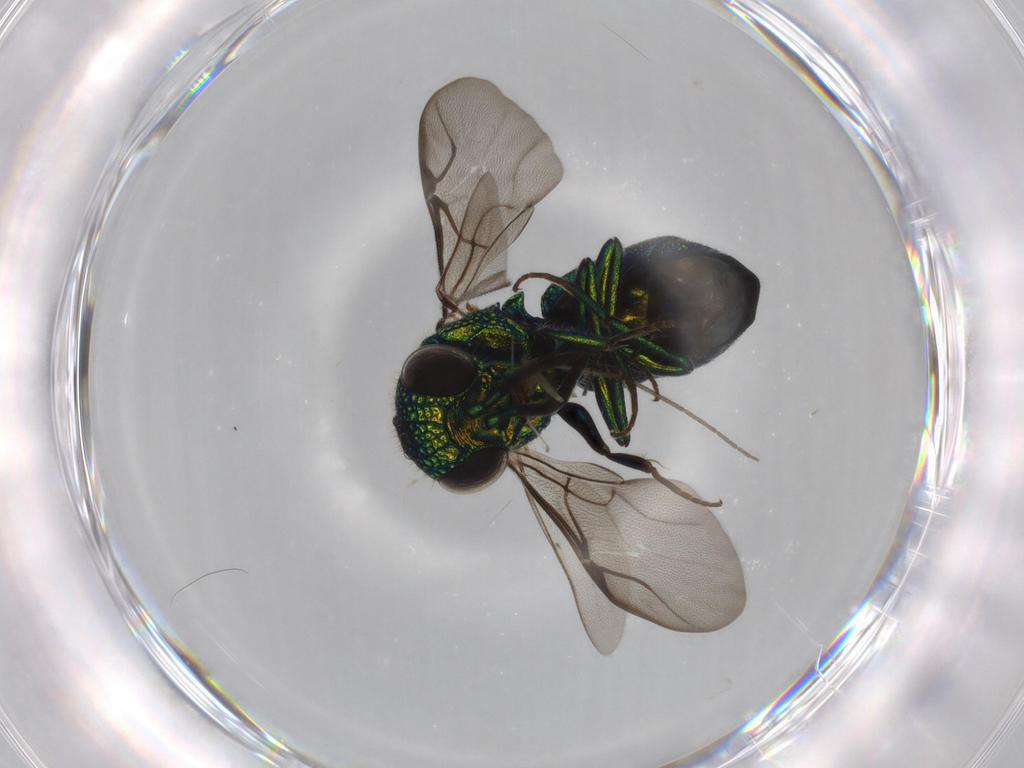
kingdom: Animalia
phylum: Arthropoda
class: Insecta
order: Hymenoptera
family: Chrysididae
